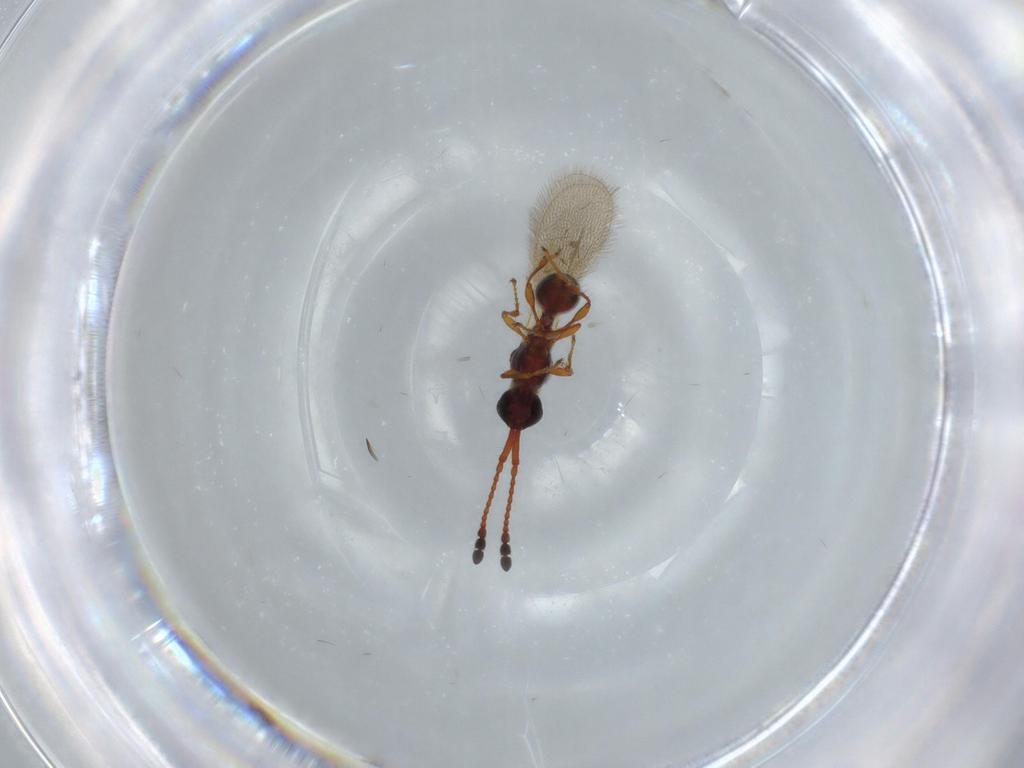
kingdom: Animalia
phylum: Arthropoda
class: Insecta
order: Hymenoptera
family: Diapriidae
